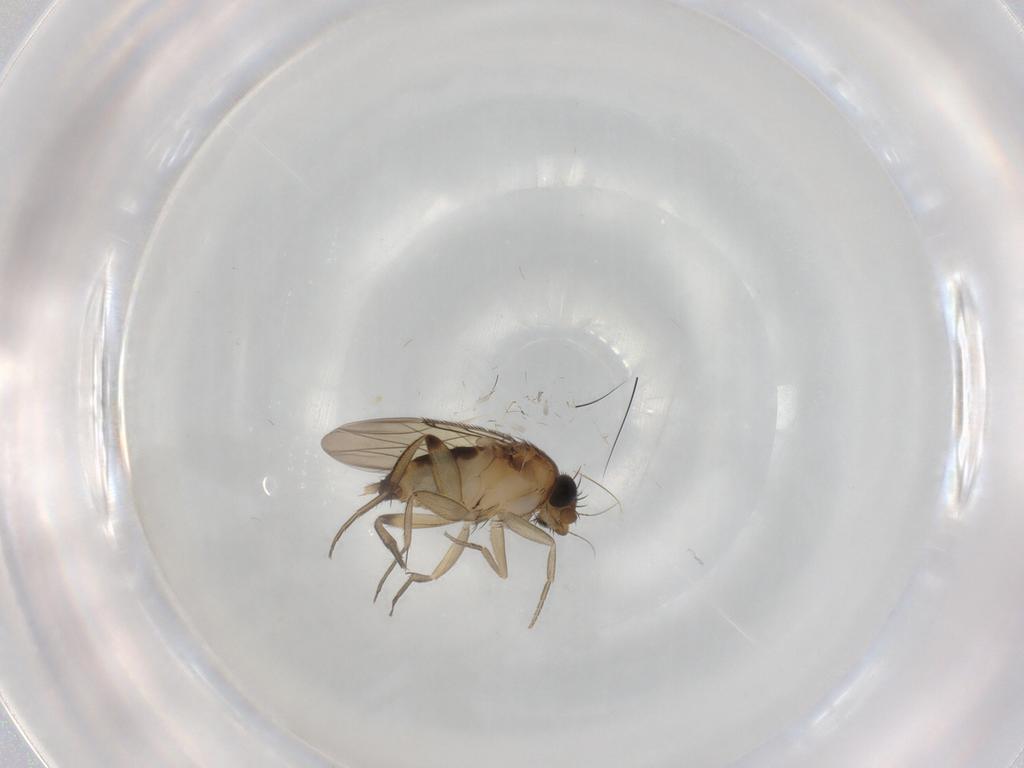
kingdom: Animalia
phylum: Arthropoda
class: Insecta
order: Diptera
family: Phoridae
